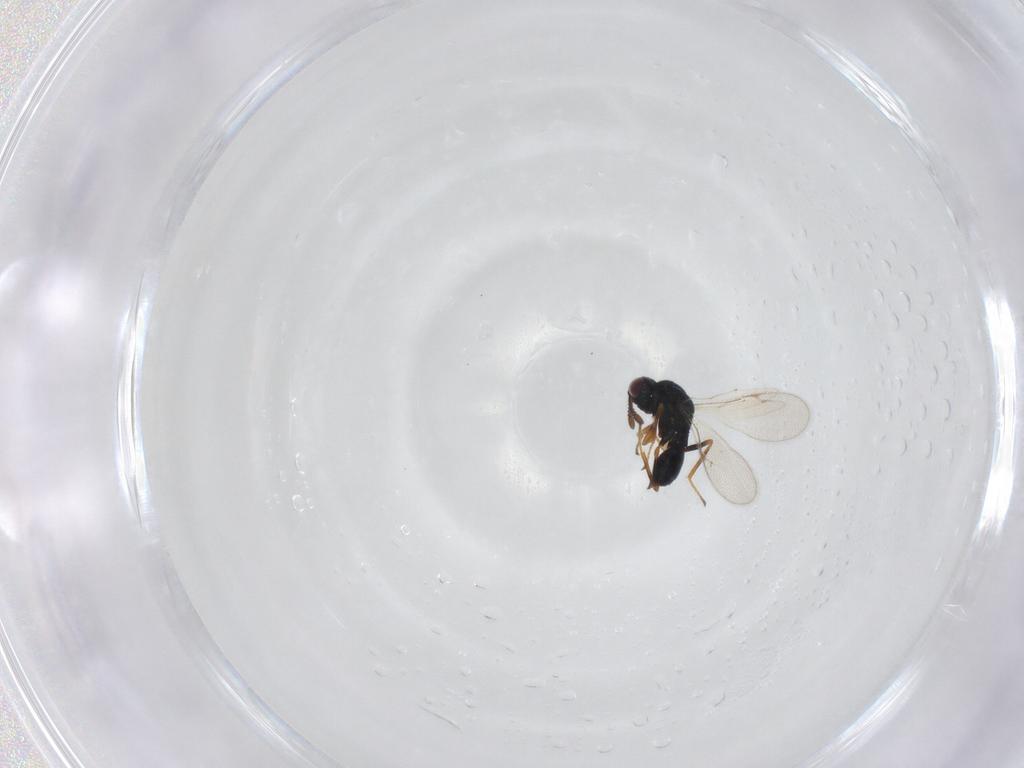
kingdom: Animalia
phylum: Arthropoda
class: Insecta
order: Hymenoptera
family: Chalcidoidea_incertae_sedis
